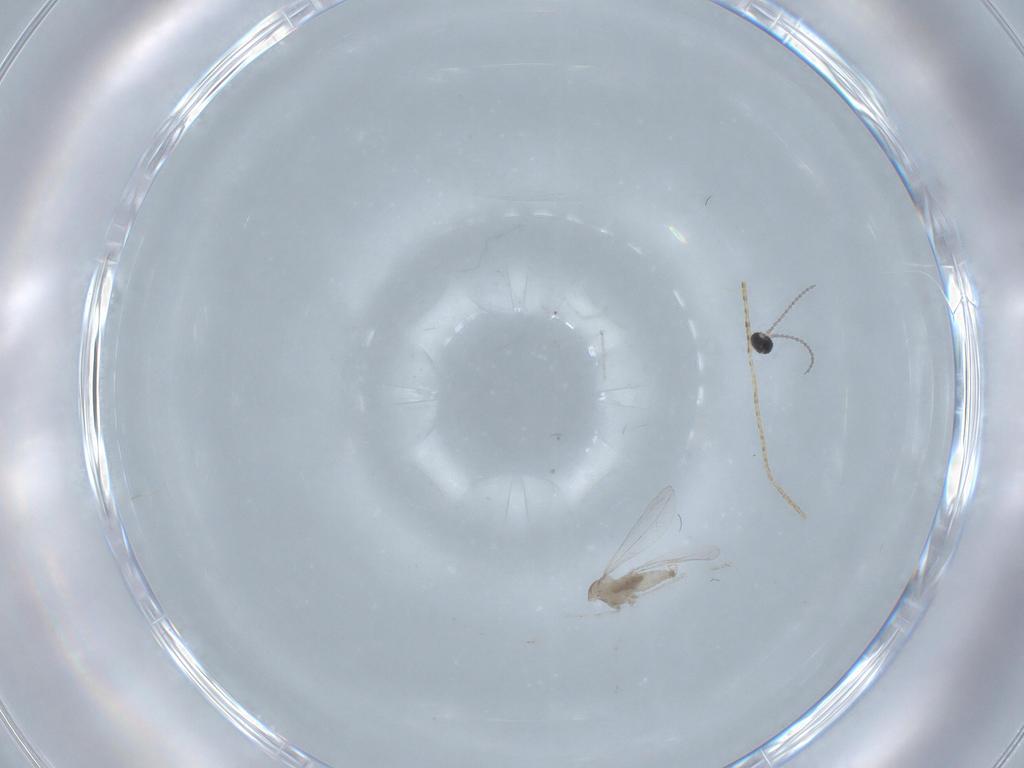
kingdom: Animalia
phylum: Arthropoda
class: Insecta
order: Diptera
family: Cecidomyiidae
